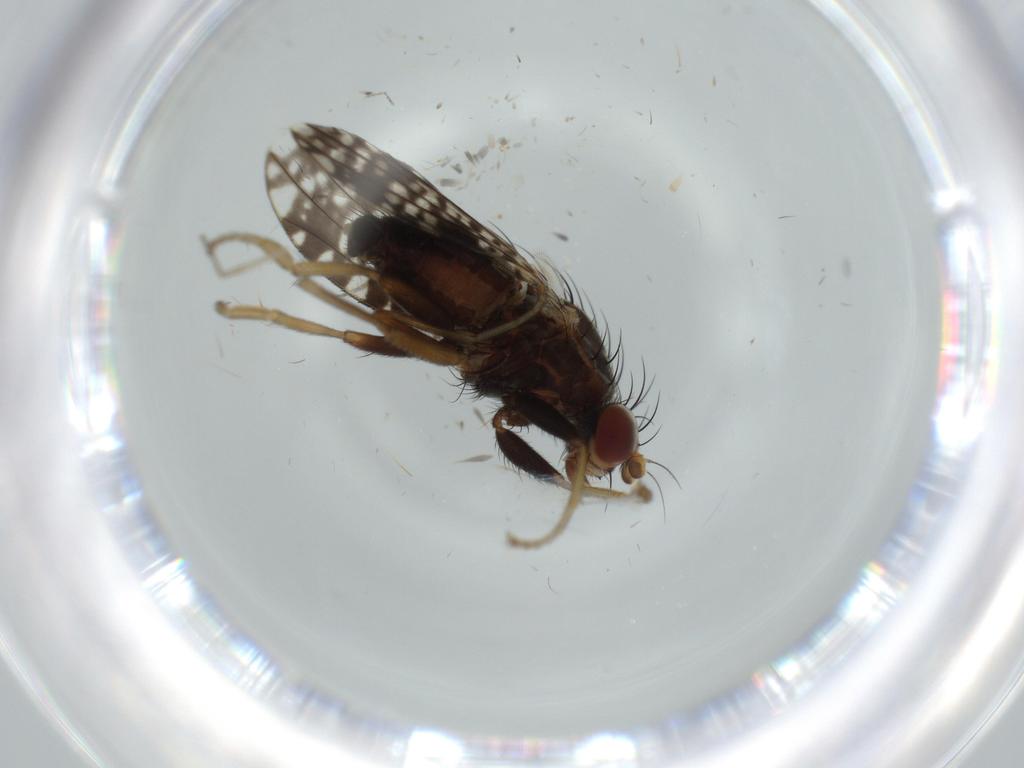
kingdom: Animalia
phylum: Arthropoda
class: Insecta
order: Diptera
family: Tephritidae
